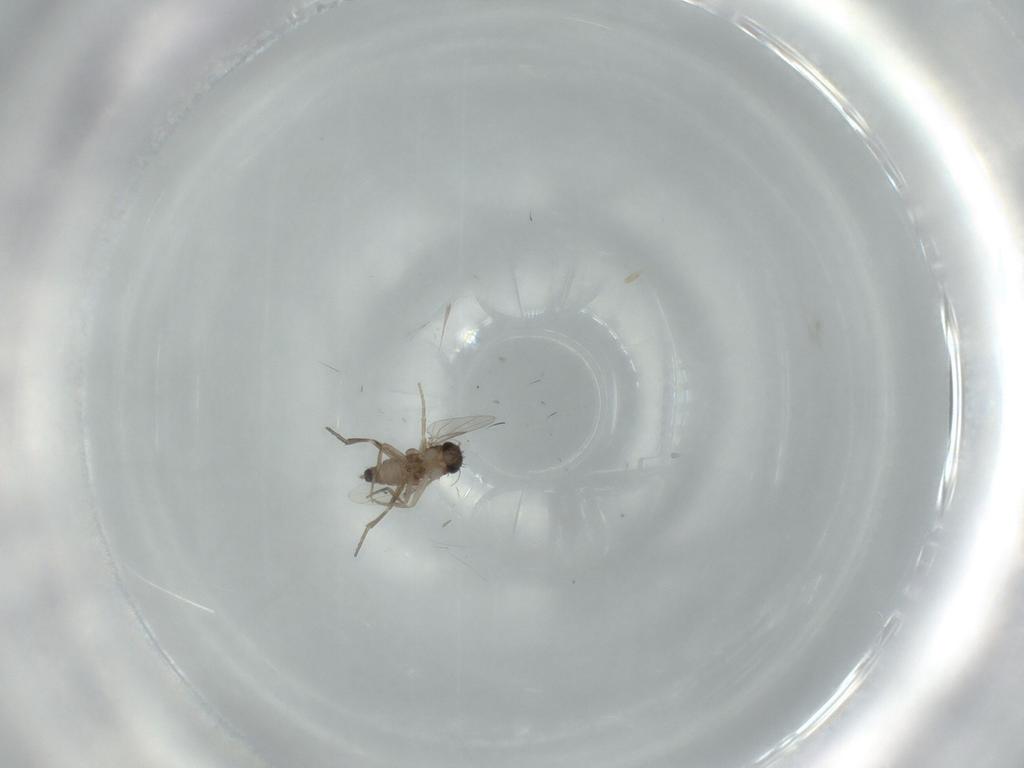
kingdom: Animalia
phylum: Arthropoda
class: Insecta
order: Diptera
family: Phoridae
